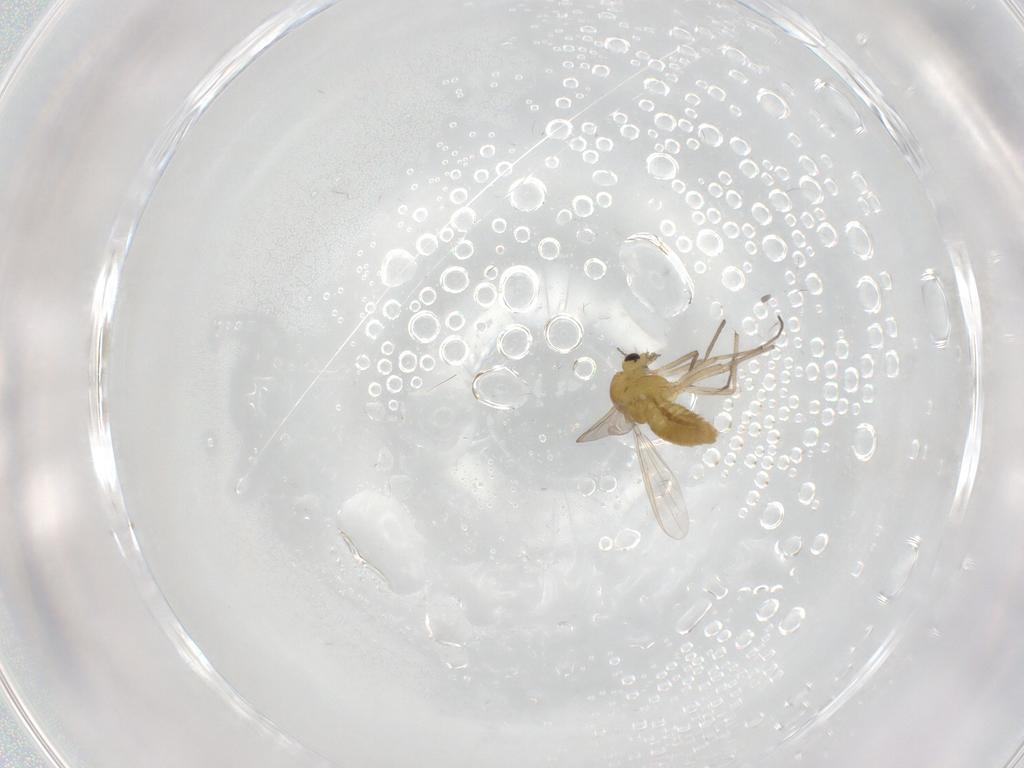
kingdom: Animalia
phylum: Arthropoda
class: Insecta
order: Diptera
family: Chironomidae
